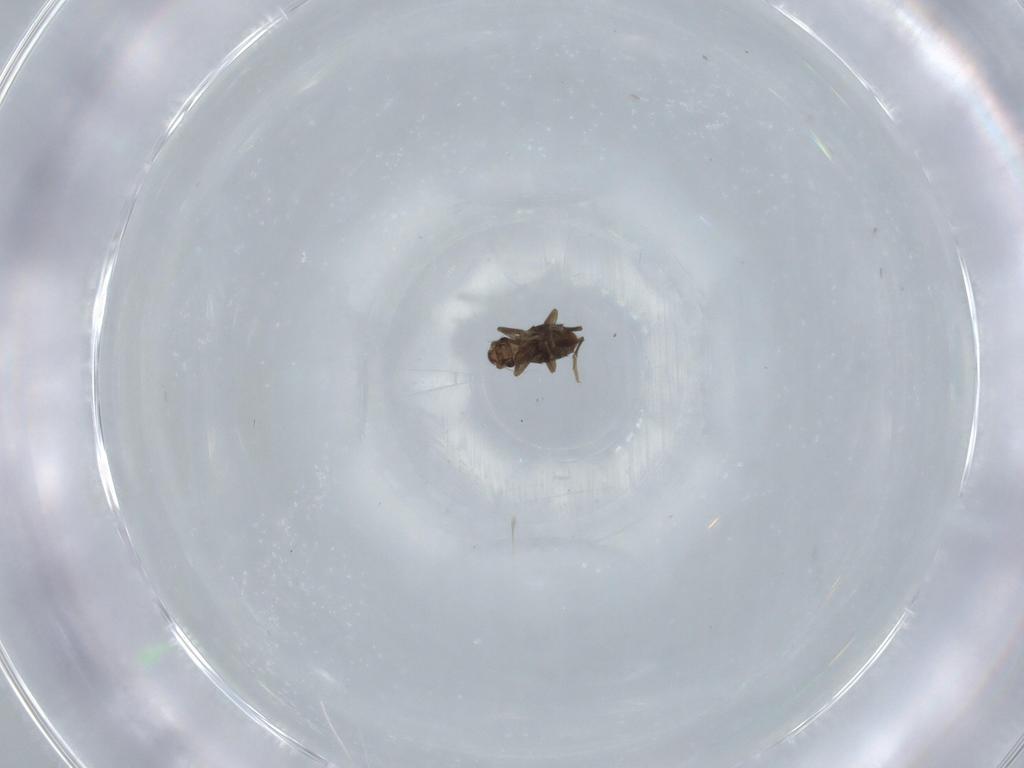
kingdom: Animalia
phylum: Arthropoda
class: Insecta
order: Diptera
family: Phoridae
